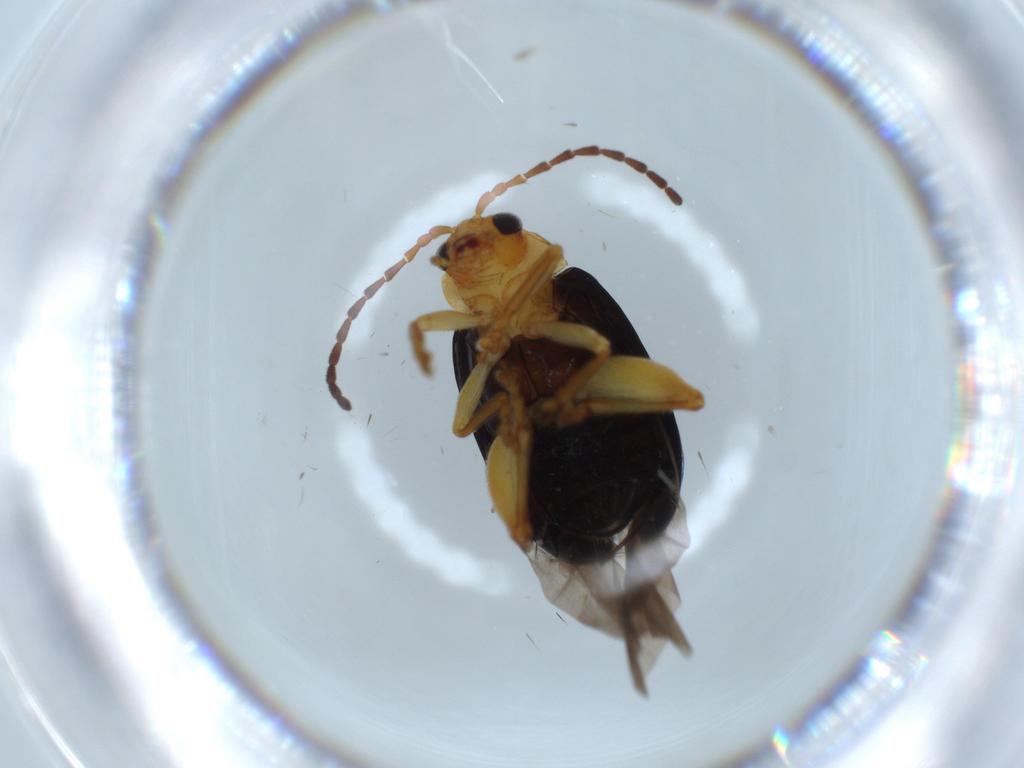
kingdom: Animalia
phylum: Arthropoda
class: Insecta
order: Coleoptera
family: Chrysomelidae
